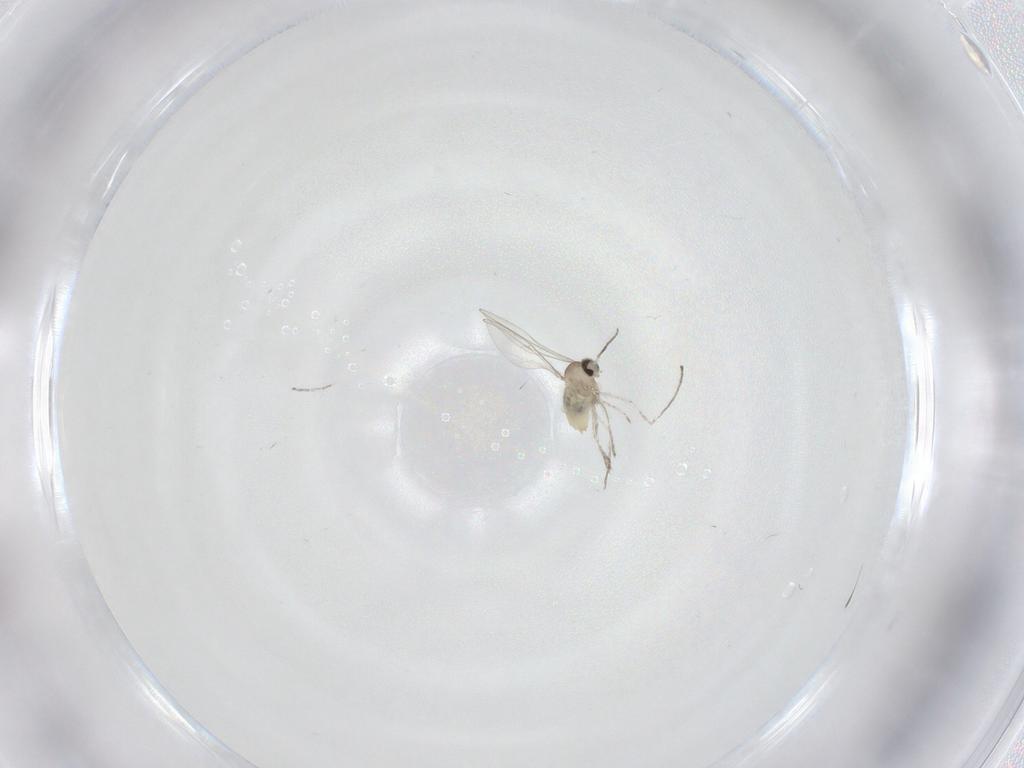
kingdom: Animalia
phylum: Arthropoda
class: Insecta
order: Diptera
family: Cecidomyiidae
